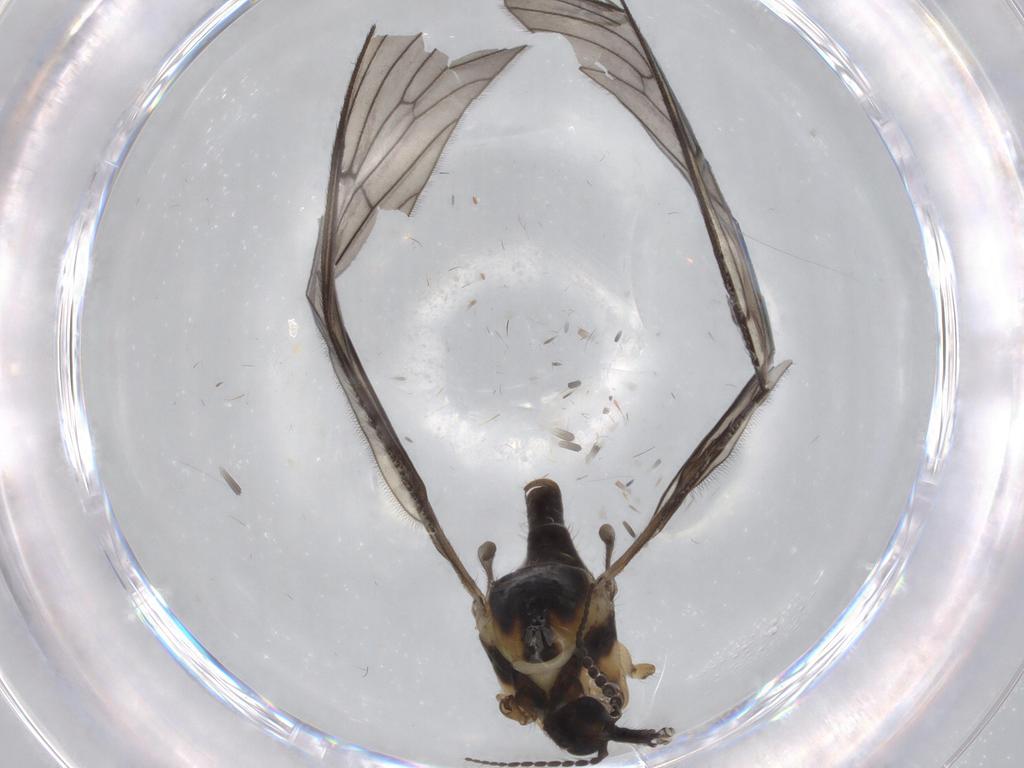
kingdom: Animalia
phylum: Arthropoda
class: Insecta
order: Diptera
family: Limoniidae
